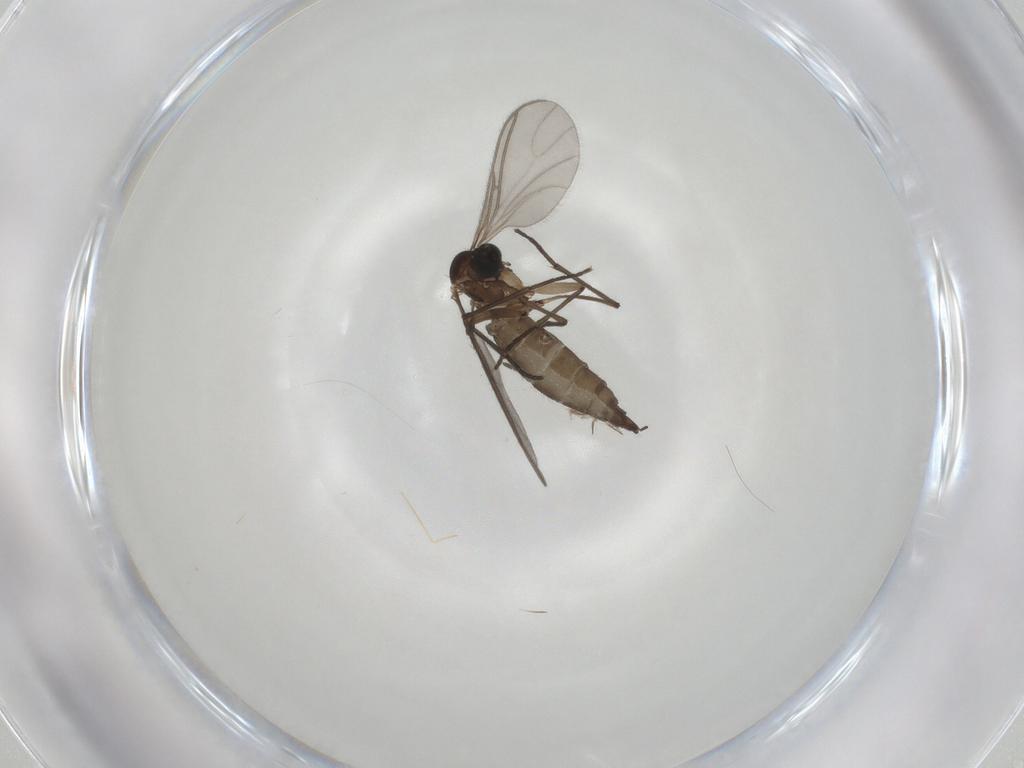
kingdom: Animalia
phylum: Arthropoda
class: Insecta
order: Diptera
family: Sciaridae
